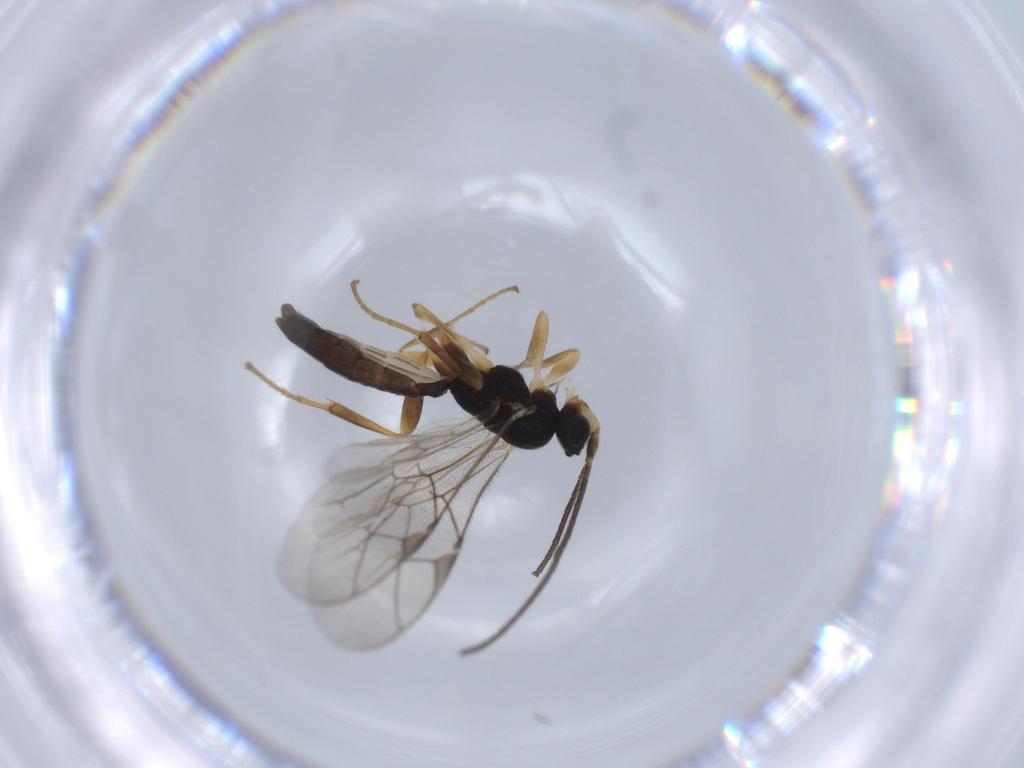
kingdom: Animalia
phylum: Arthropoda
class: Insecta
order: Hymenoptera
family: Ichneumonidae
